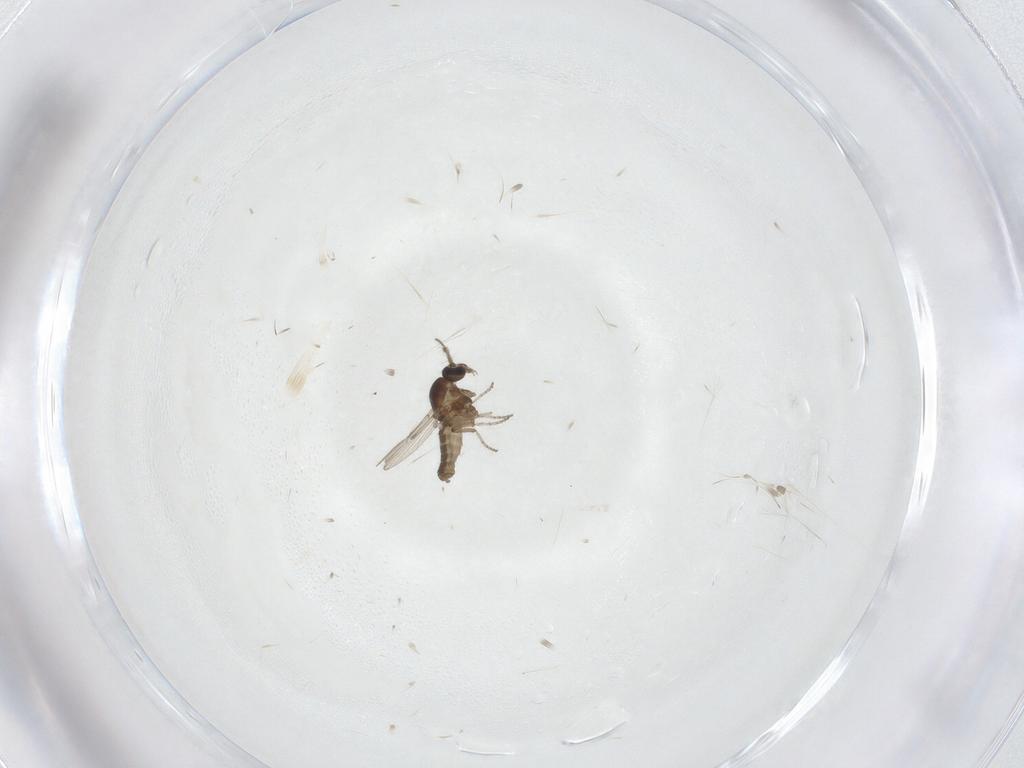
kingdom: Animalia
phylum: Arthropoda
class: Insecta
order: Diptera
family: Ceratopogonidae
